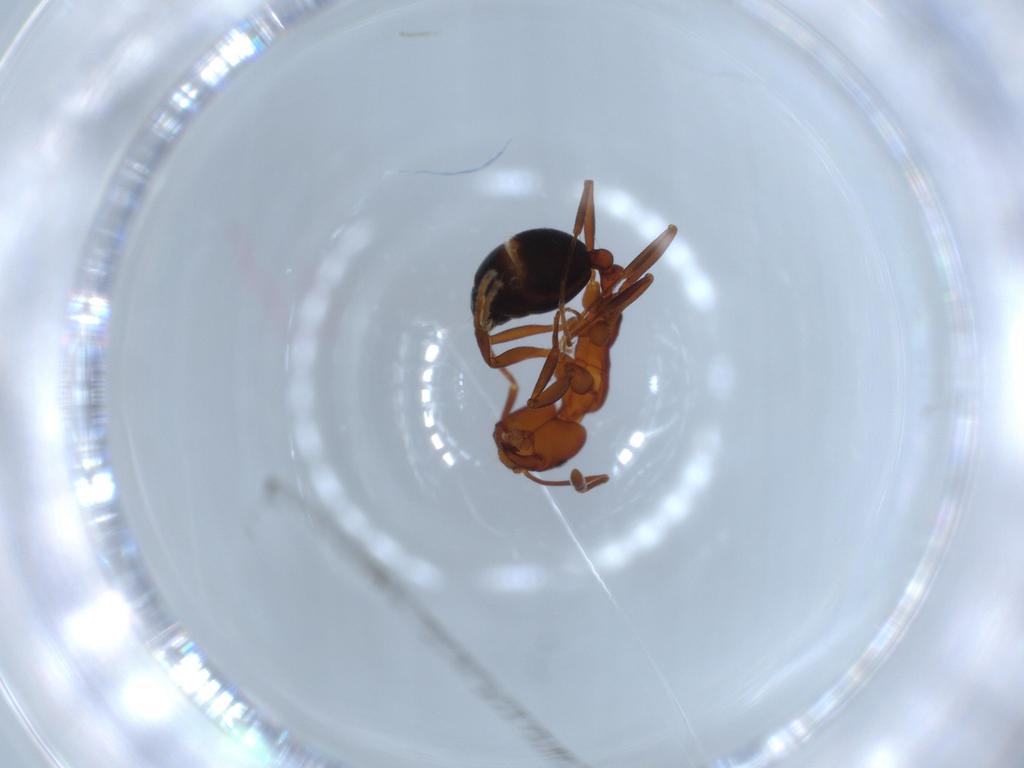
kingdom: Animalia
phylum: Arthropoda
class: Insecta
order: Hymenoptera
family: Formicidae
